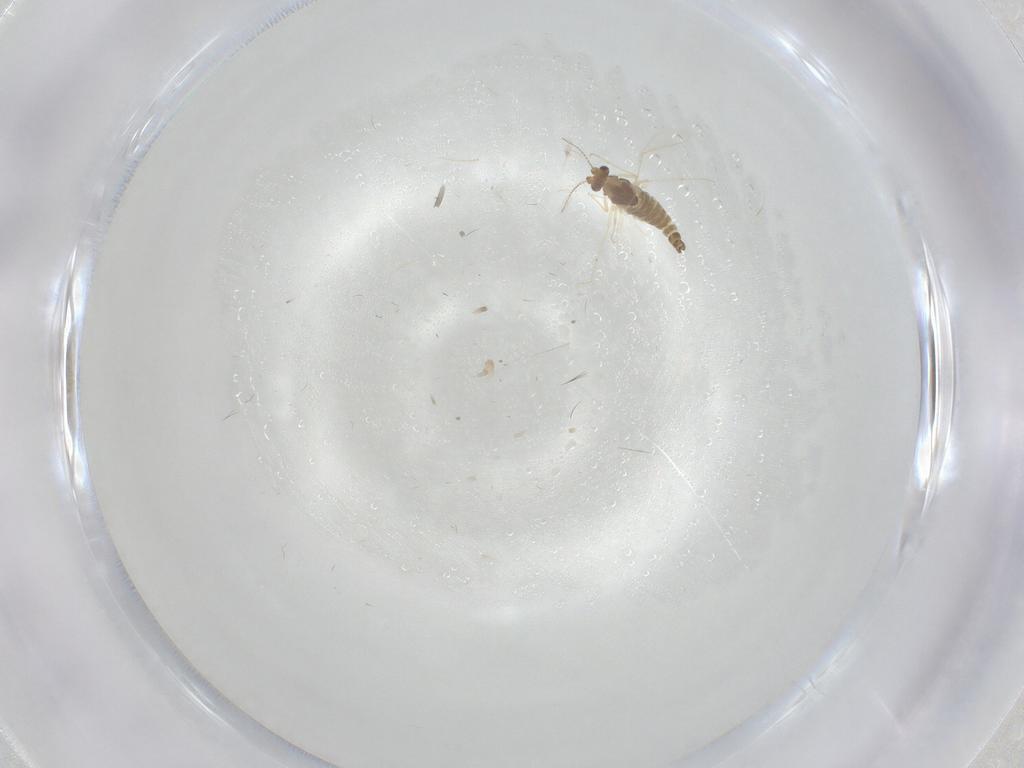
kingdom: Animalia
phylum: Arthropoda
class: Insecta
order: Diptera
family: Chironomidae
